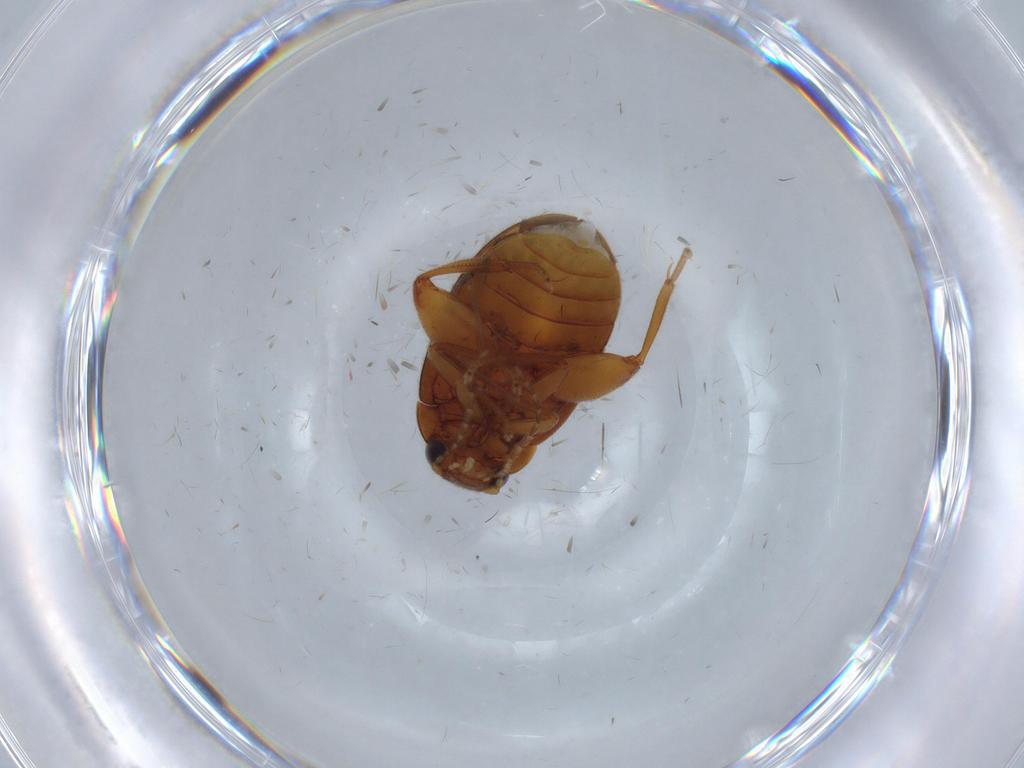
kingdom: Animalia
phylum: Arthropoda
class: Insecta
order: Coleoptera
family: Scirtidae
